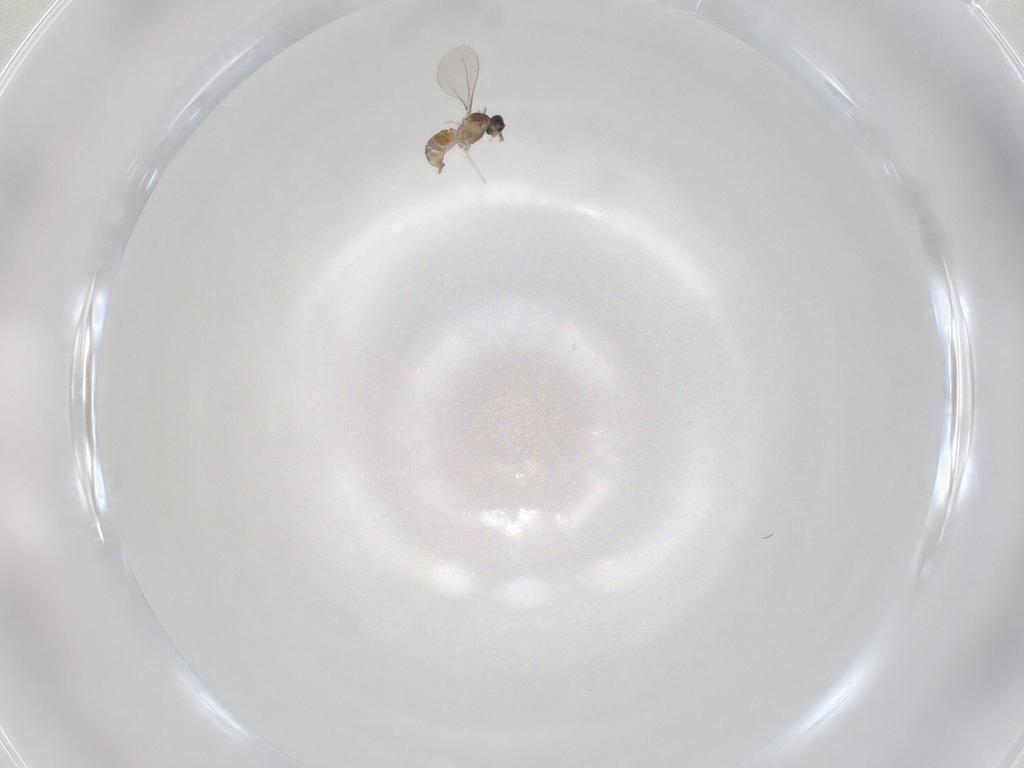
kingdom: Animalia
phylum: Arthropoda
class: Insecta
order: Diptera
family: Cecidomyiidae
